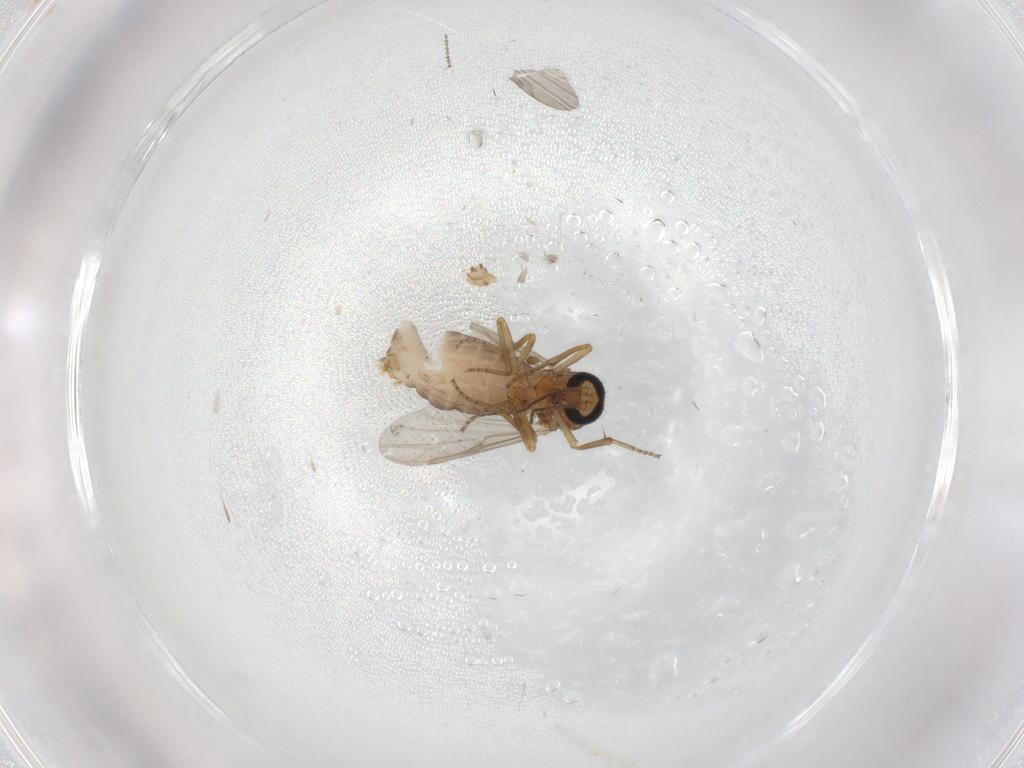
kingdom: Animalia
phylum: Arthropoda
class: Insecta
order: Diptera
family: Ceratopogonidae
